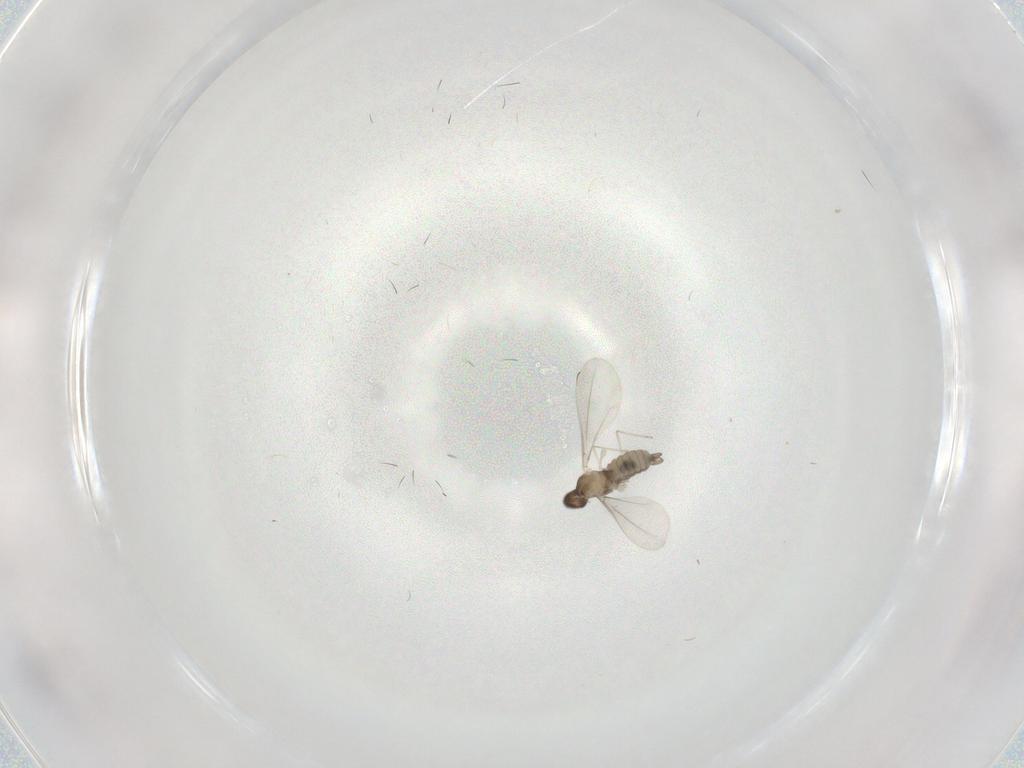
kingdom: Animalia
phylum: Arthropoda
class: Insecta
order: Diptera
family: Cecidomyiidae
